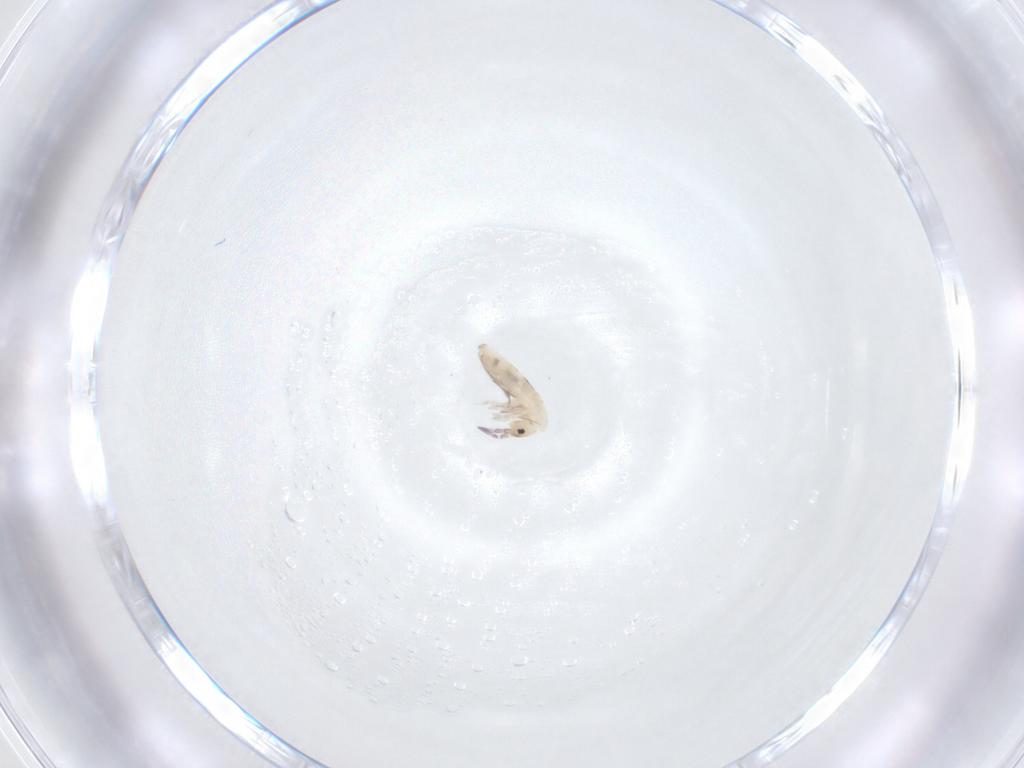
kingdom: Animalia
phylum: Arthropoda
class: Collembola
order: Entomobryomorpha
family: Entomobryidae
